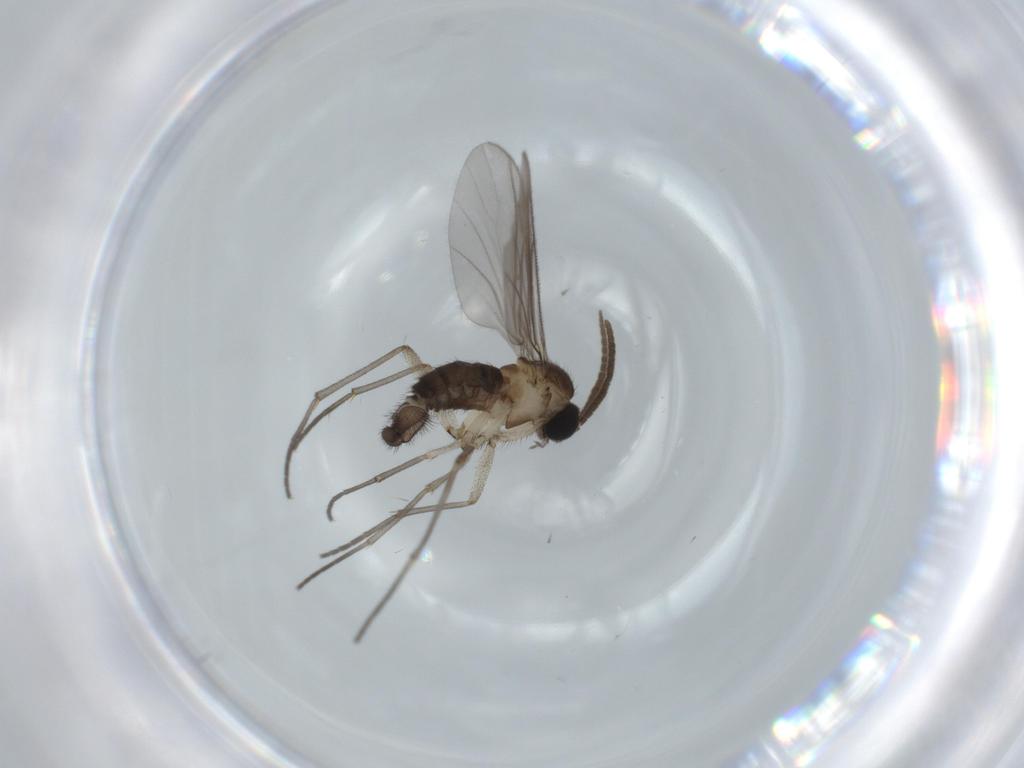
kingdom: Animalia
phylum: Arthropoda
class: Insecta
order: Diptera
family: Sciaridae
